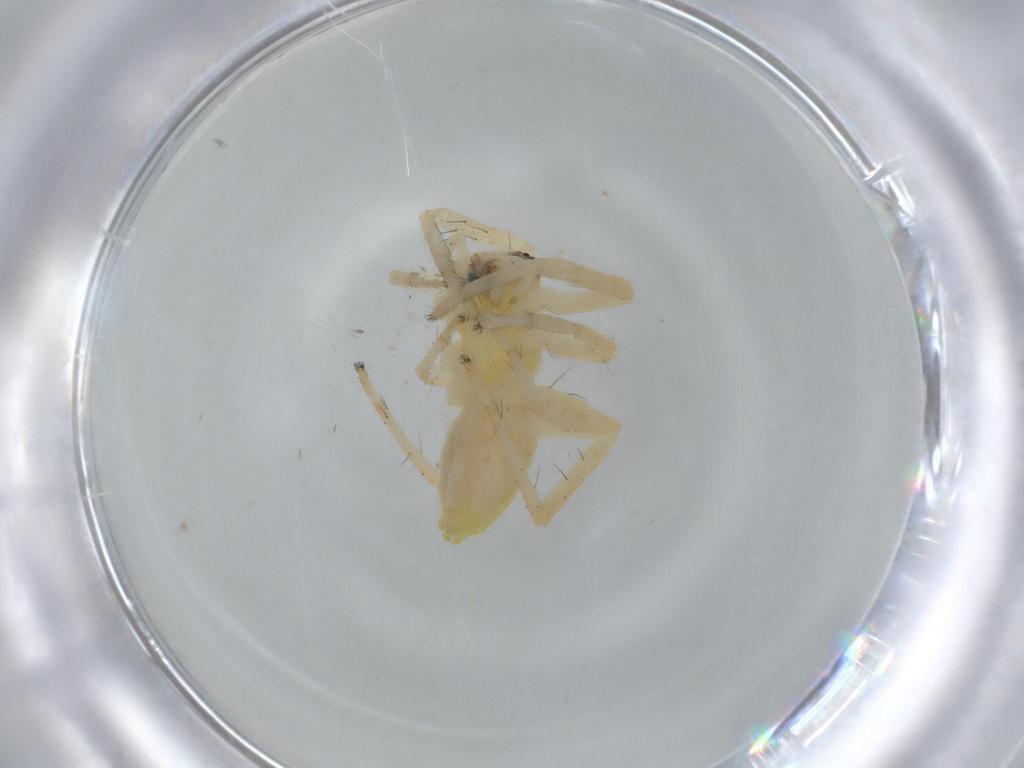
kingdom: Animalia
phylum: Arthropoda
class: Arachnida
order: Araneae
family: Anyphaenidae
